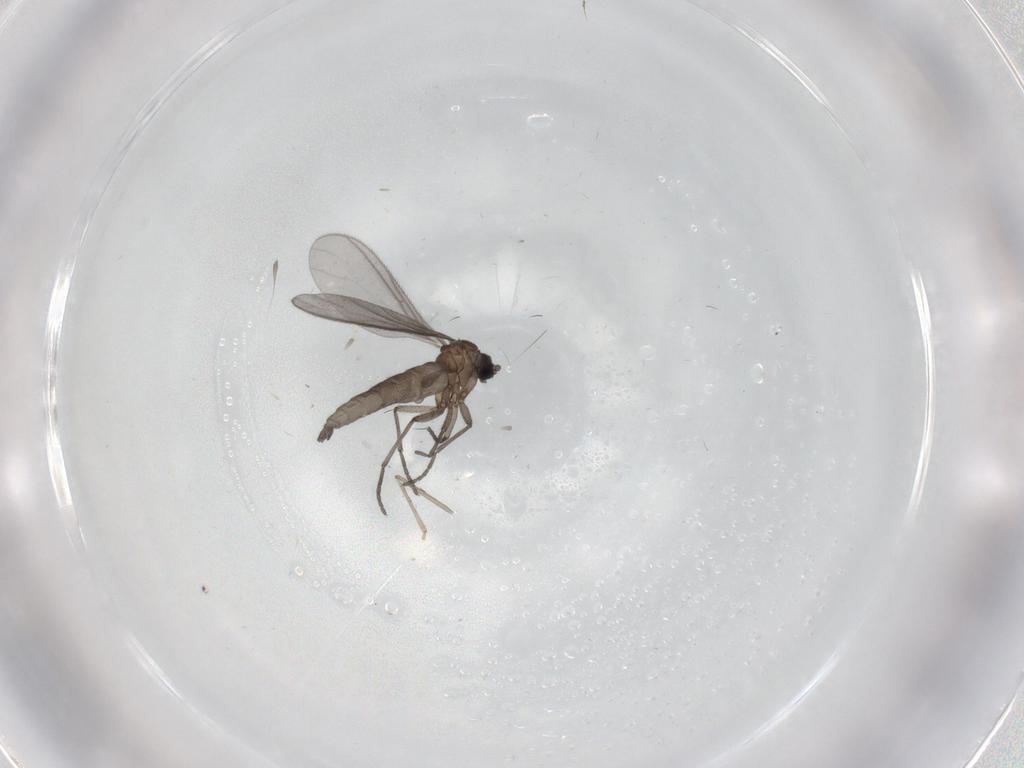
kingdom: Animalia
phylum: Arthropoda
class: Insecta
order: Diptera
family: Sciaridae
